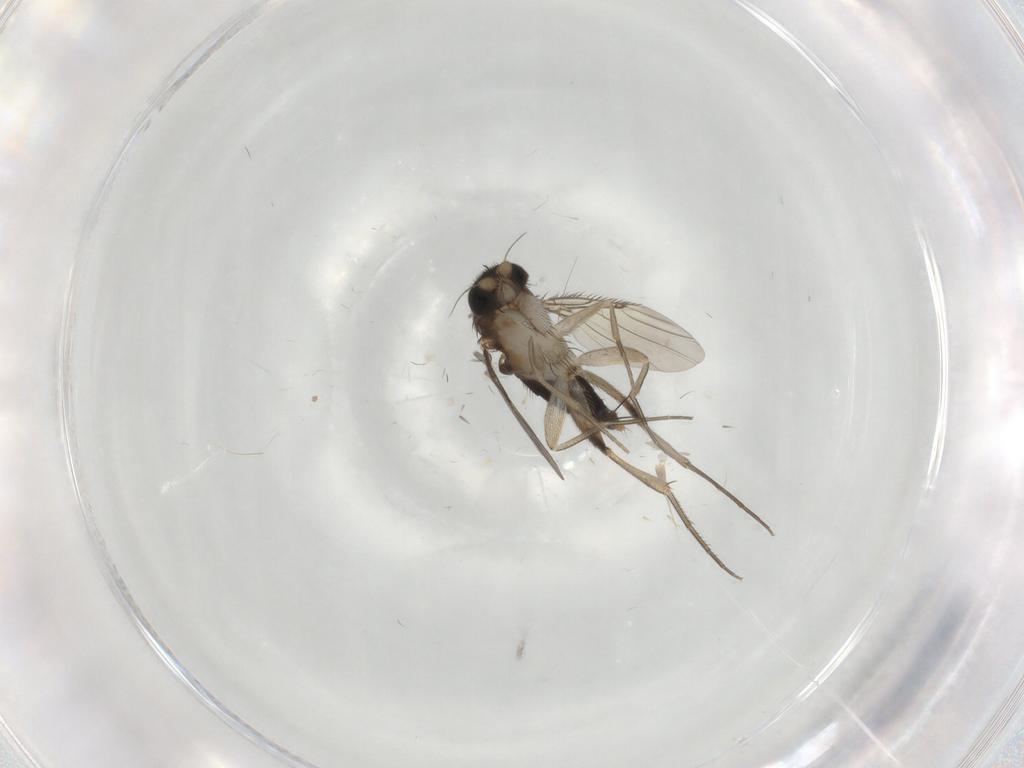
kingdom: Animalia
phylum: Arthropoda
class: Insecta
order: Diptera
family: Phoridae
